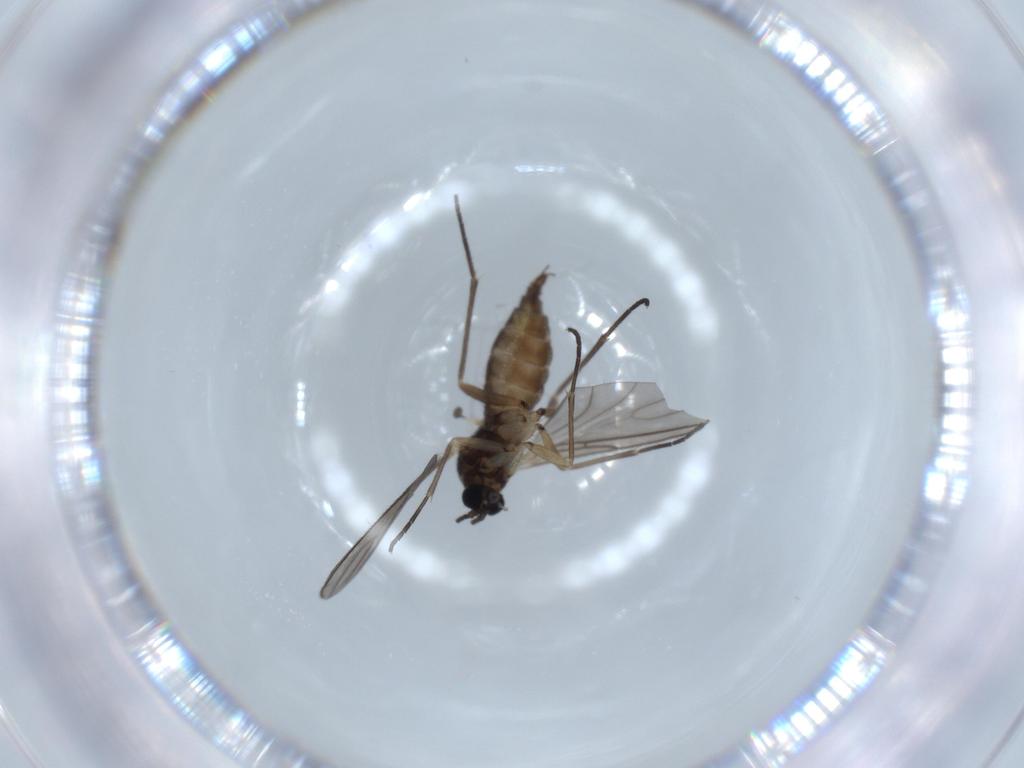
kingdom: Animalia
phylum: Arthropoda
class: Insecta
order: Diptera
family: Sciaridae
